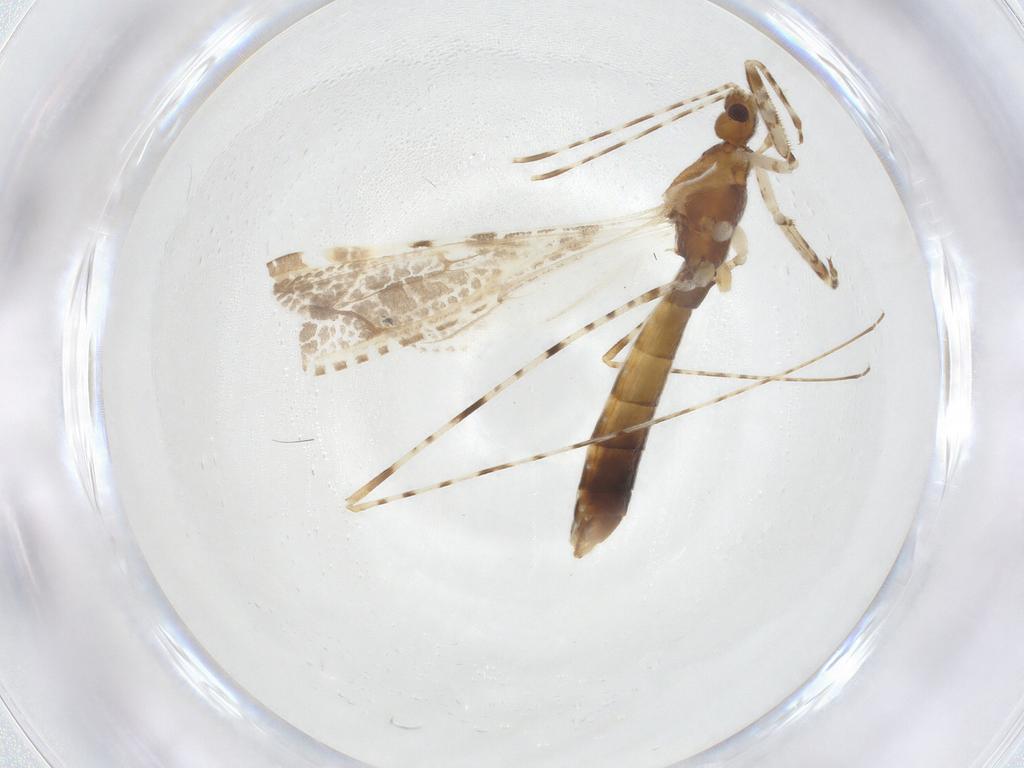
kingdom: Animalia
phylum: Arthropoda
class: Insecta
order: Hemiptera
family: Reduviidae
